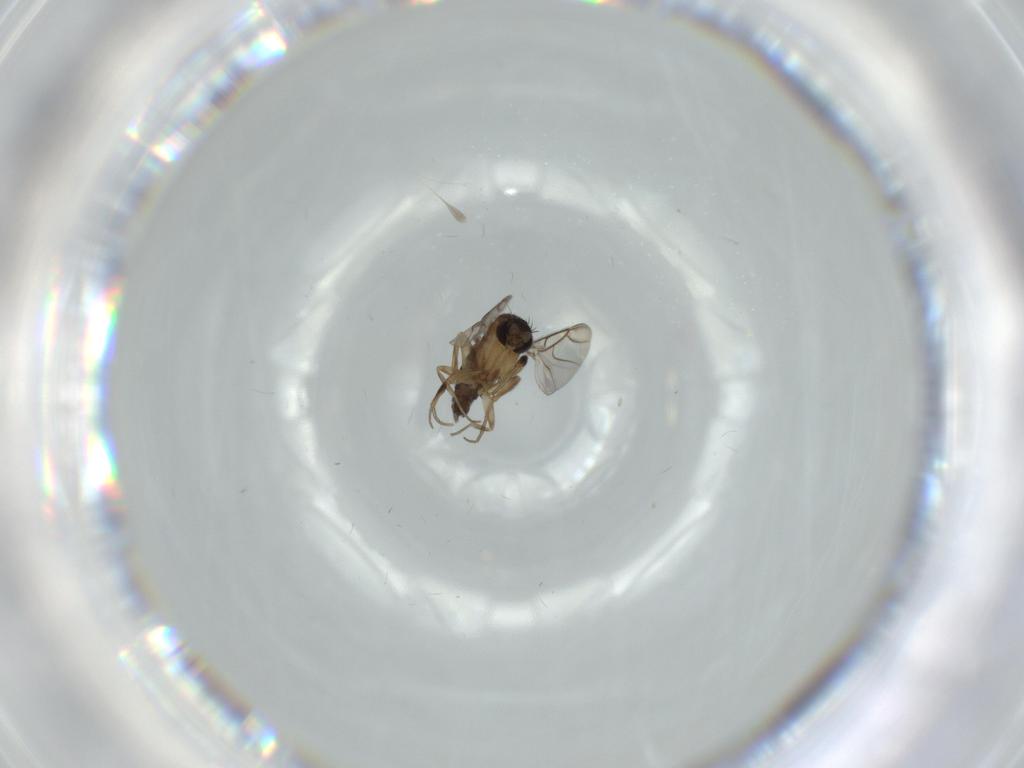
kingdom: Animalia
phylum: Arthropoda
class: Insecta
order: Diptera
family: Phoridae
